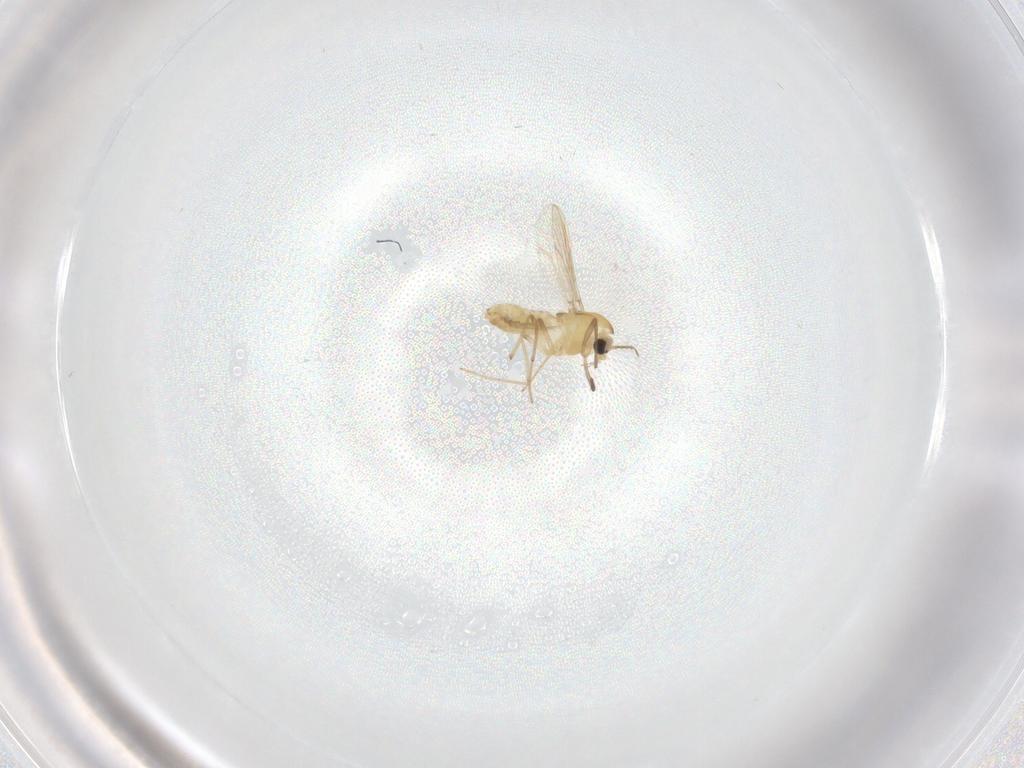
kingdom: Animalia
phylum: Arthropoda
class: Insecta
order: Diptera
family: Chironomidae
